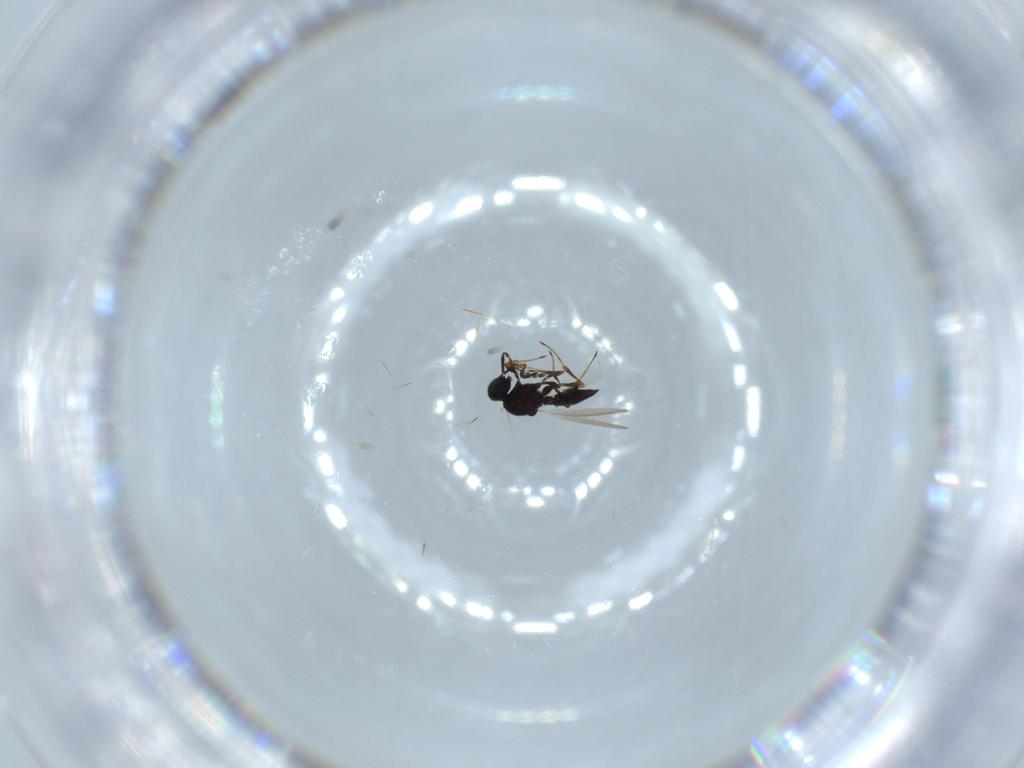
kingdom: Animalia
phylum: Arthropoda
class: Insecta
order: Hymenoptera
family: Platygastridae
